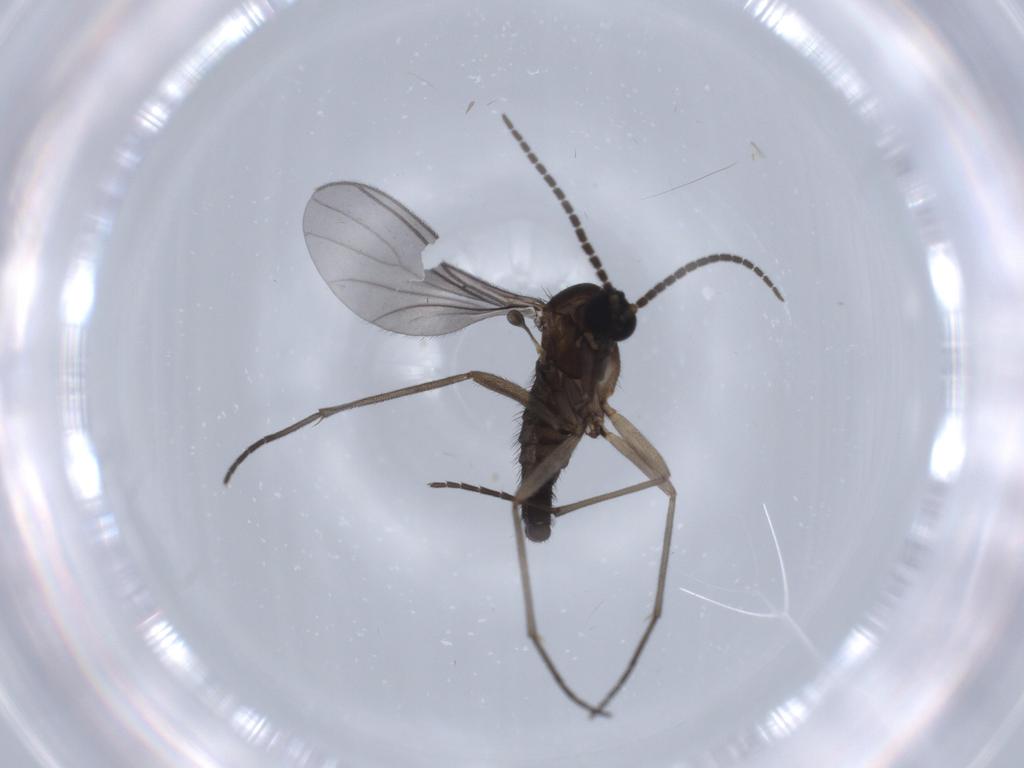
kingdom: Animalia
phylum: Arthropoda
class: Insecta
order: Diptera
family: Sciaridae
